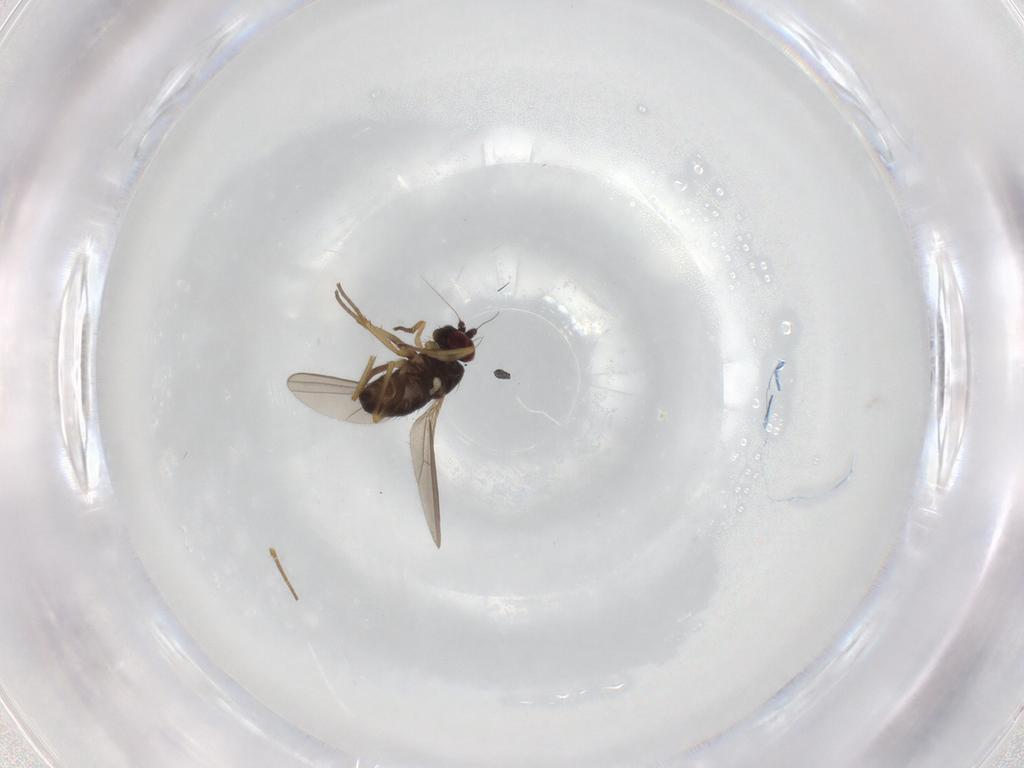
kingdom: Animalia
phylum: Arthropoda
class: Insecta
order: Diptera
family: Dolichopodidae
